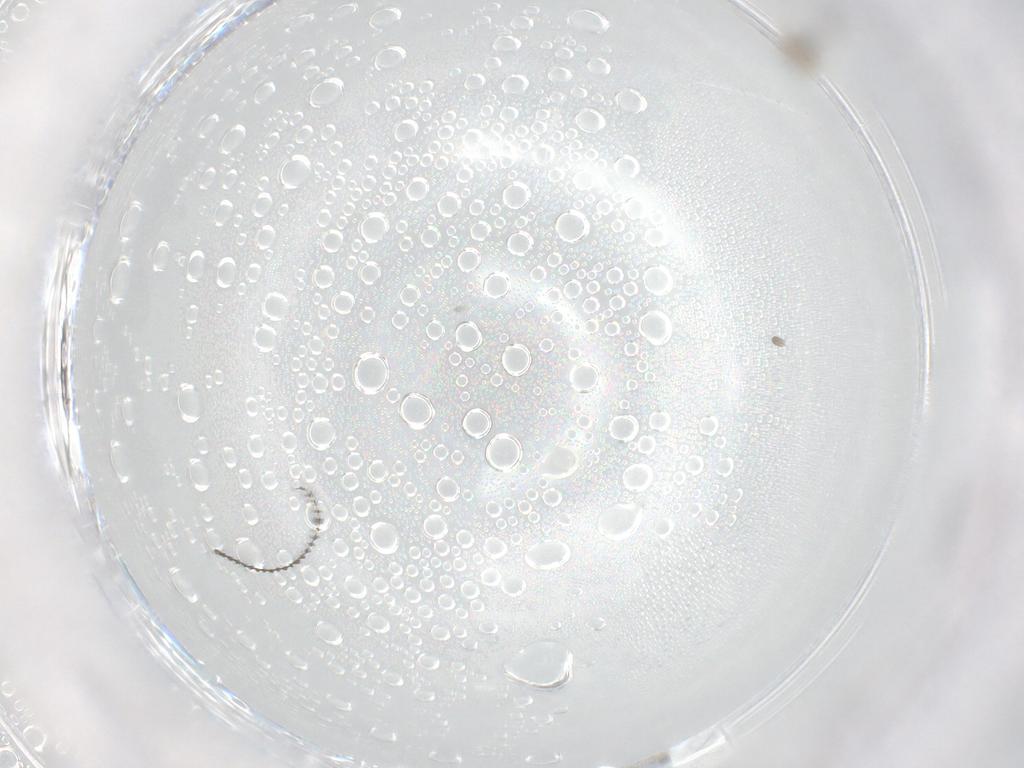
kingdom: Animalia
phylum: Arthropoda
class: Insecta
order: Diptera
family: Cecidomyiidae
